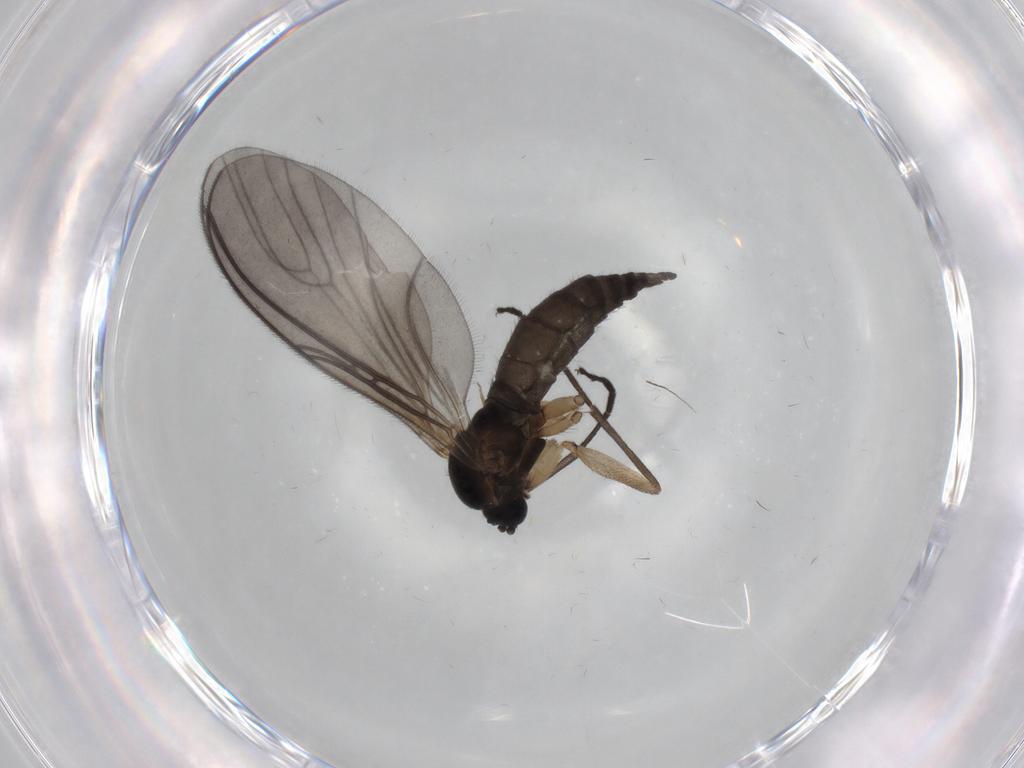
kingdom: Animalia
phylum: Arthropoda
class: Insecta
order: Diptera
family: Sciaridae
